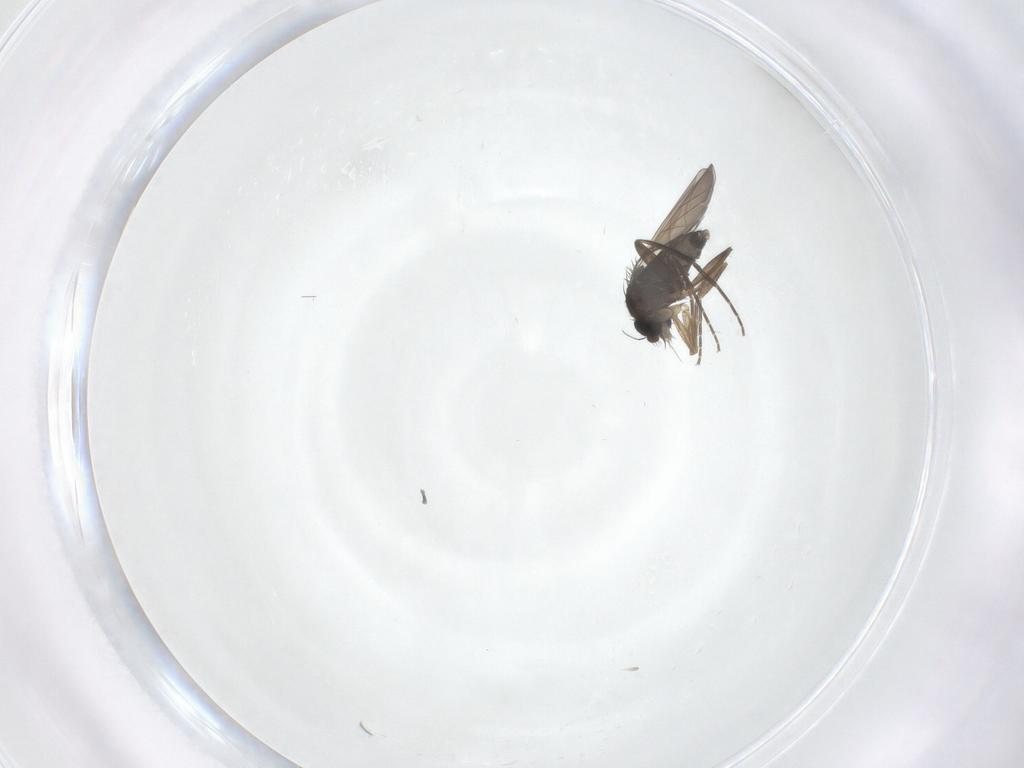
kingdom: Animalia
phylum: Arthropoda
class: Insecta
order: Diptera
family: Phoridae
